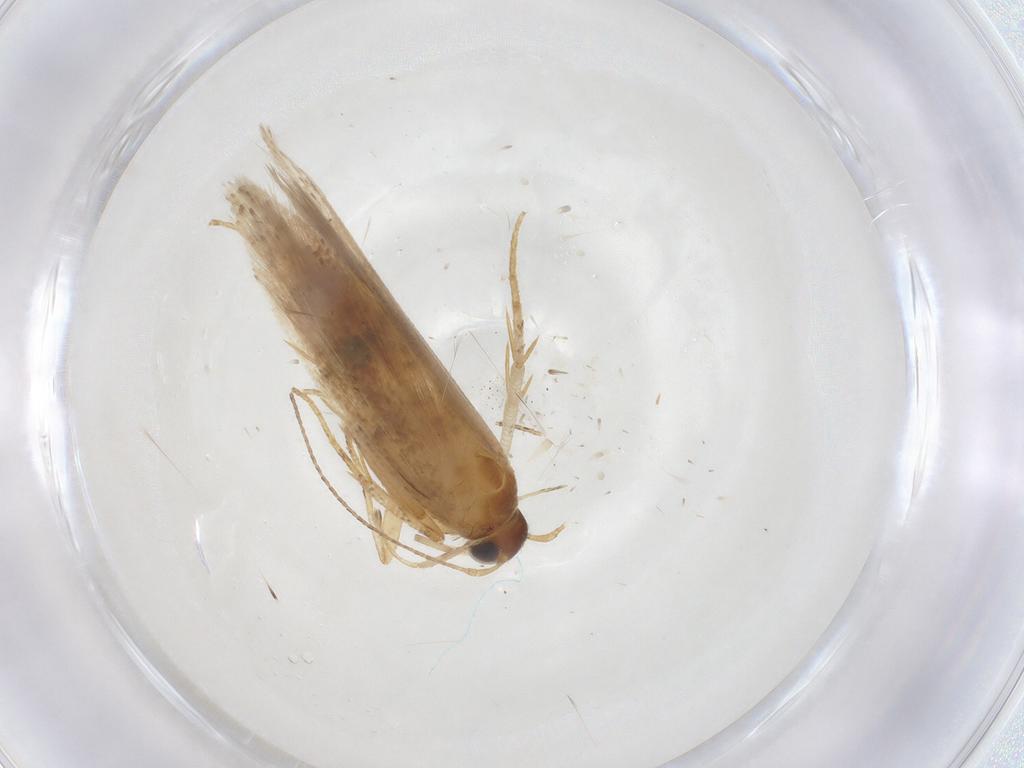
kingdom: Animalia
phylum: Arthropoda
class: Insecta
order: Lepidoptera
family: Gelechiidae
